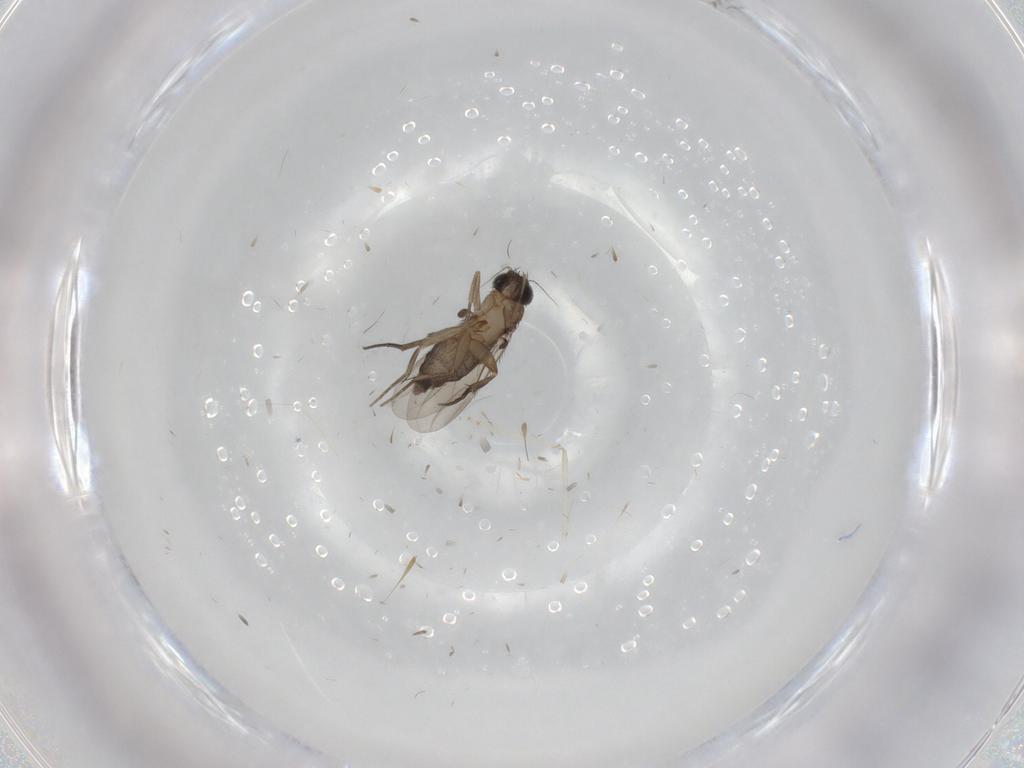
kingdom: Animalia
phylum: Arthropoda
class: Insecta
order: Diptera
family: Phoridae
